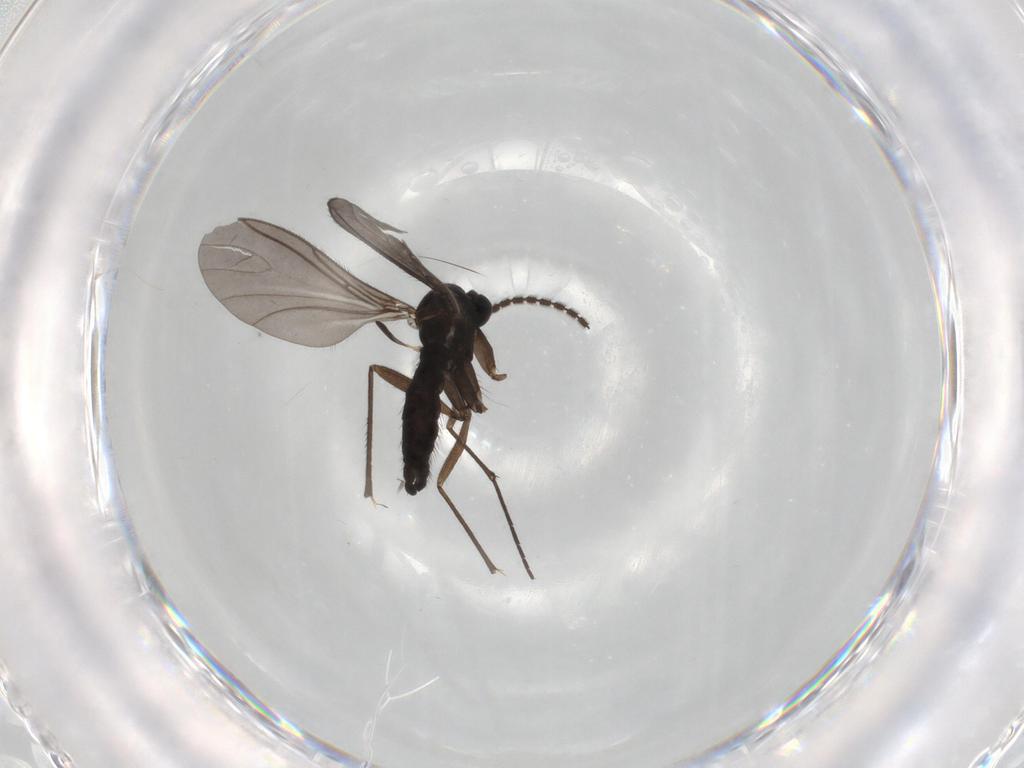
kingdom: Animalia
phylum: Arthropoda
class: Insecta
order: Diptera
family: Sciaridae
